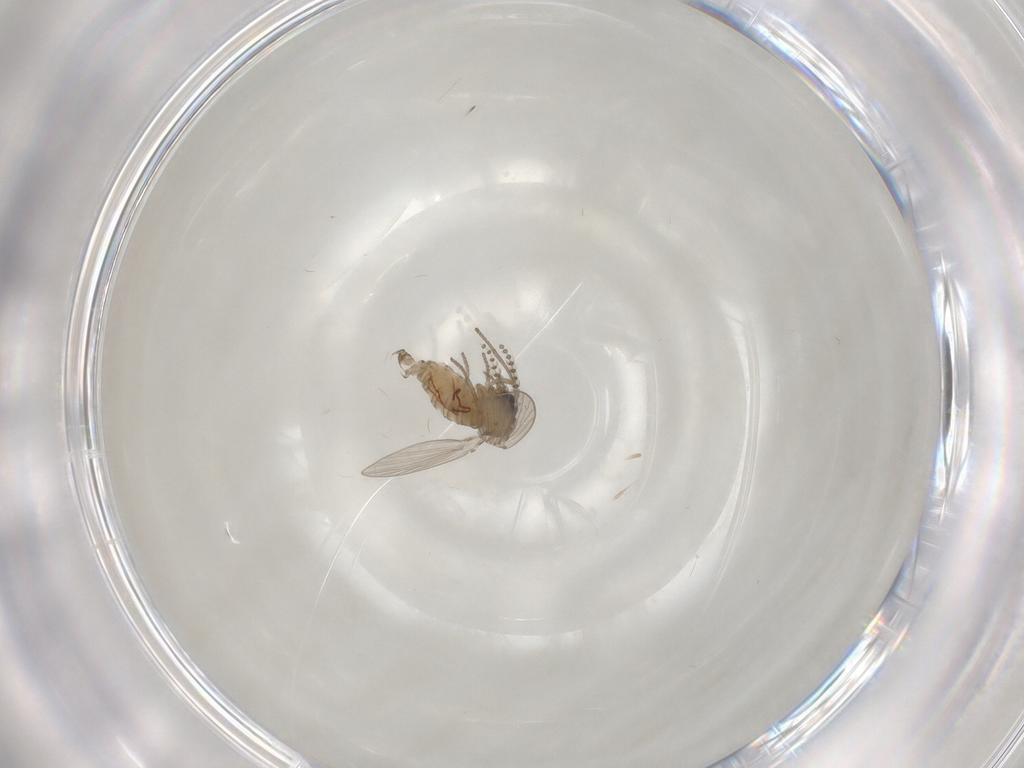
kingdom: Animalia
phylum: Arthropoda
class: Insecta
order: Diptera
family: Psychodidae
